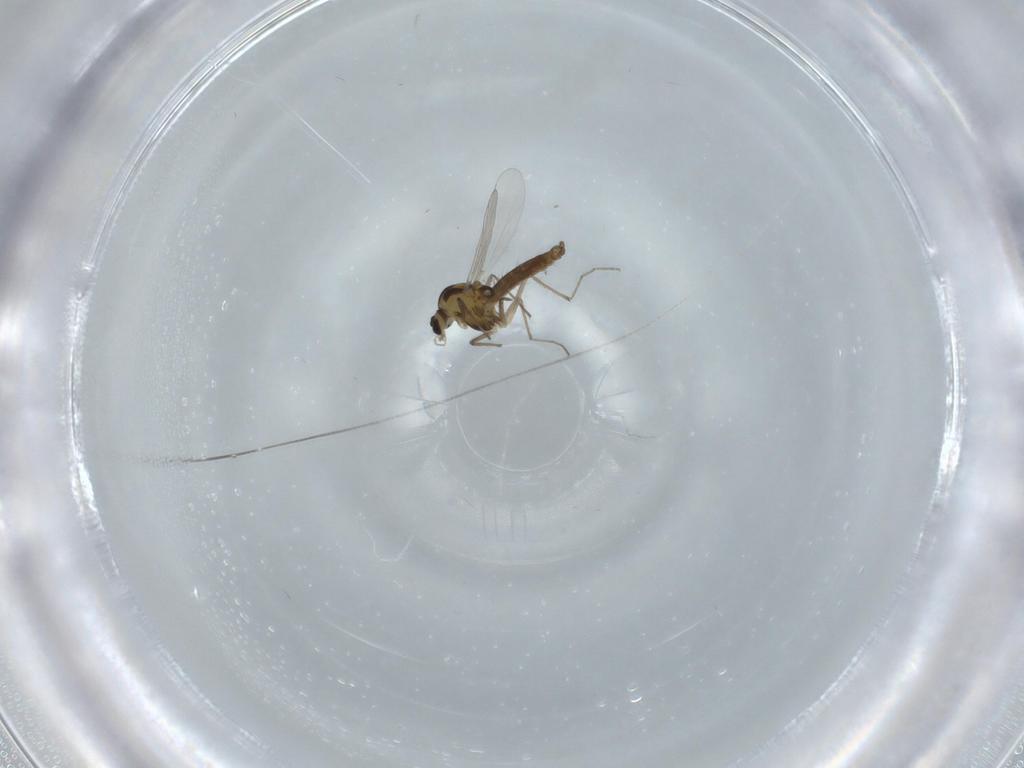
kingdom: Animalia
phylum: Arthropoda
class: Insecta
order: Diptera
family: Chironomidae
